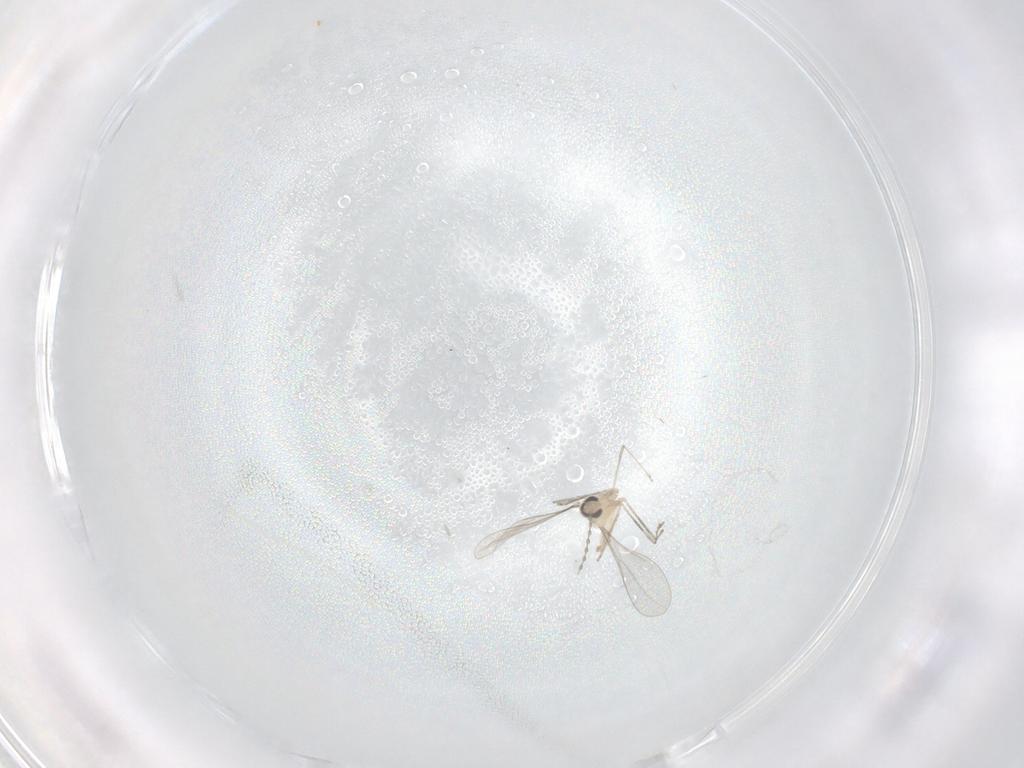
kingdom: Animalia
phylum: Arthropoda
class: Insecta
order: Diptera
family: Cecidomyiidae
